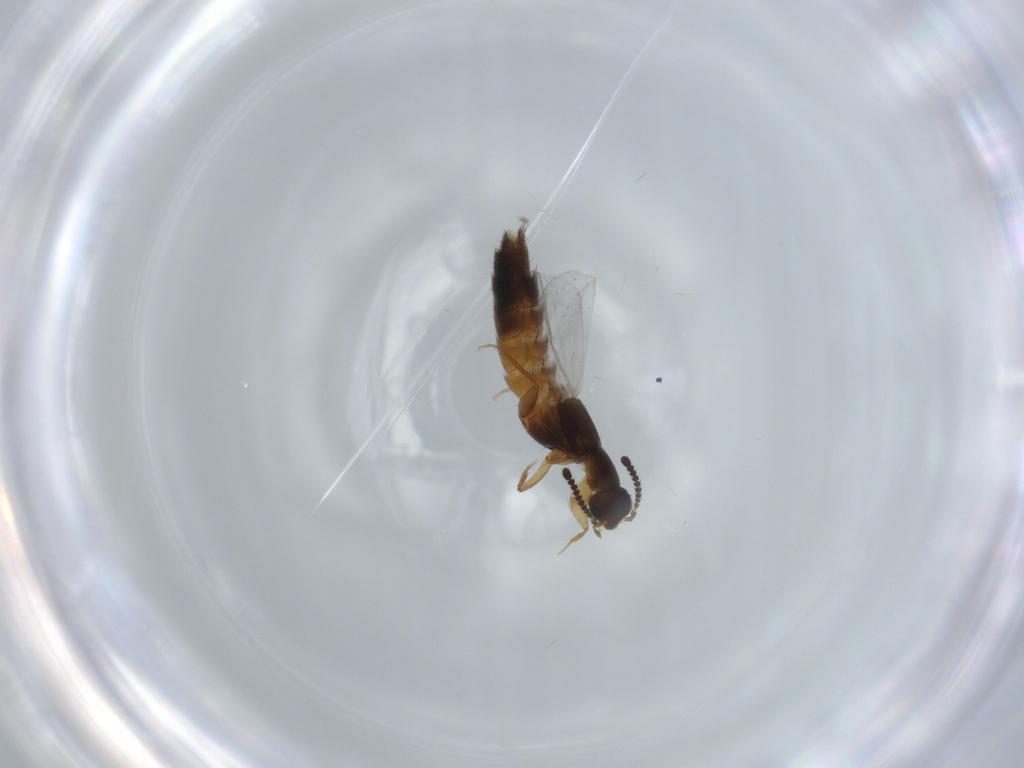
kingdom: Animalia
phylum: Arthropoda
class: Insecta
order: Coleoptera
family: Staphylinidae
